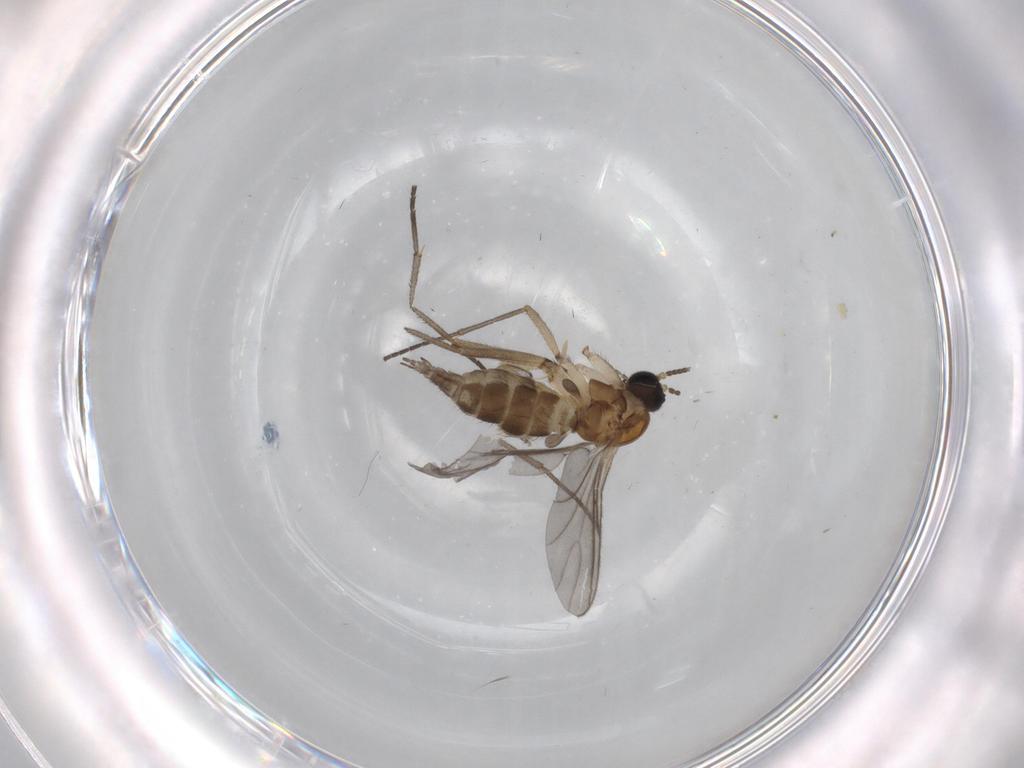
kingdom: Animalia
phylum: Arthropoda
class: Insecta
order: Diptera
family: Sciaridae
